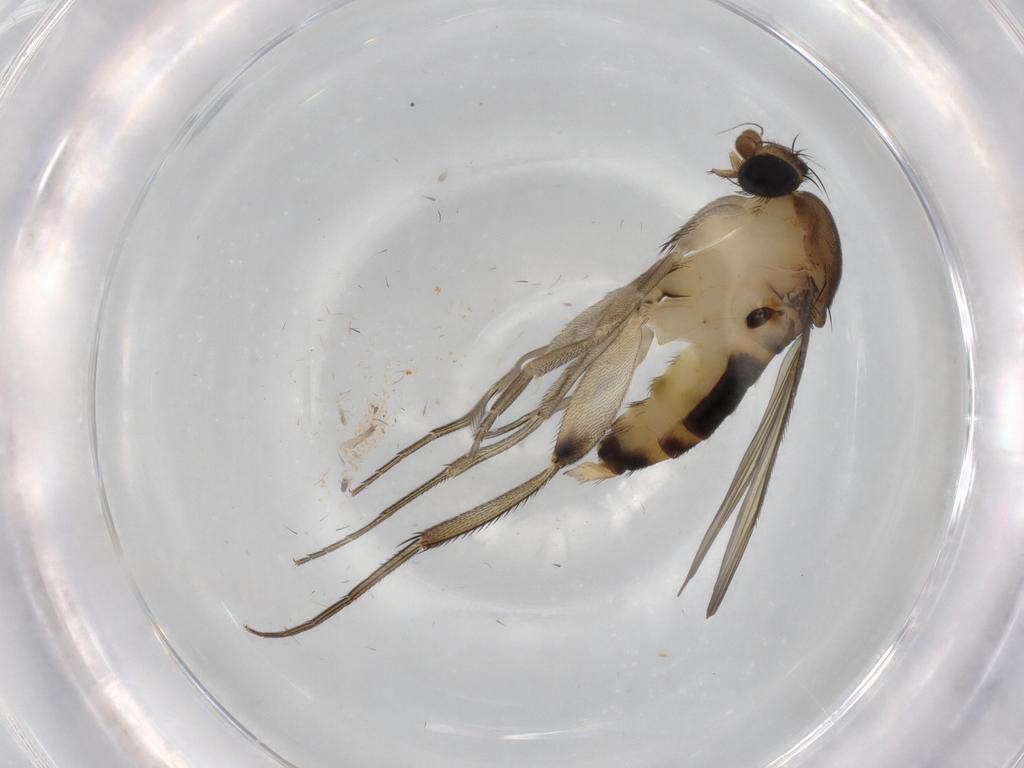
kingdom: Animalia
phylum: Arthropoda
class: Insecta
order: Diptera
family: Phoridae
